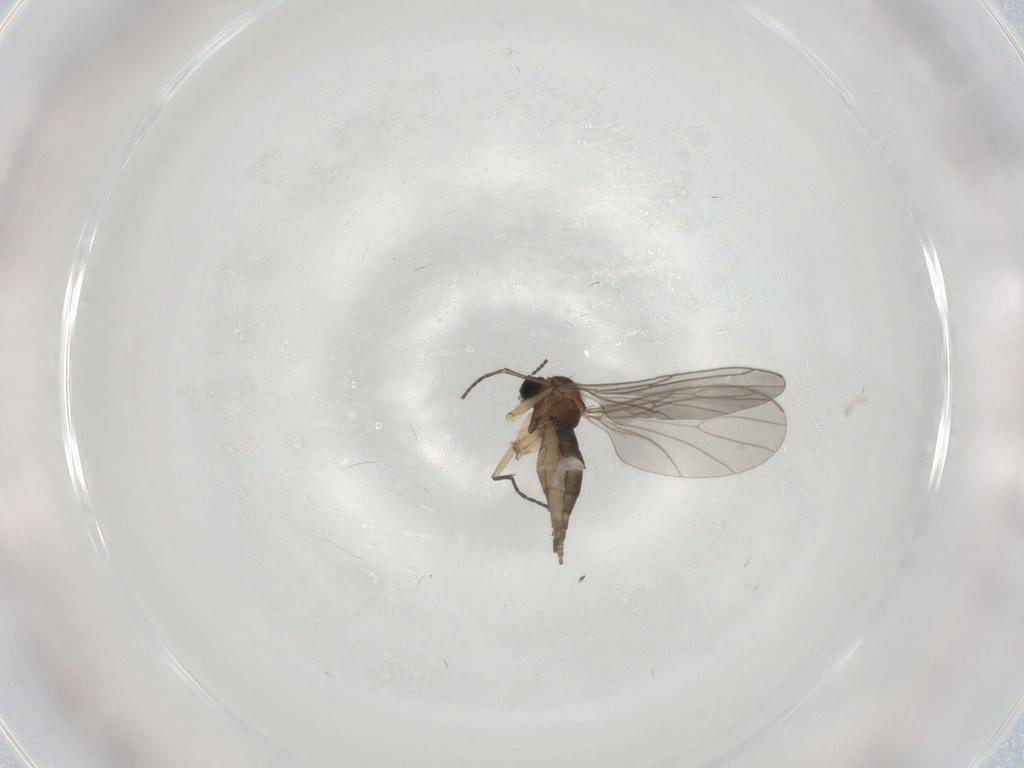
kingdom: Animalia
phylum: Arthropoda
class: Insecta
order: Diptera
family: Sciaridae
